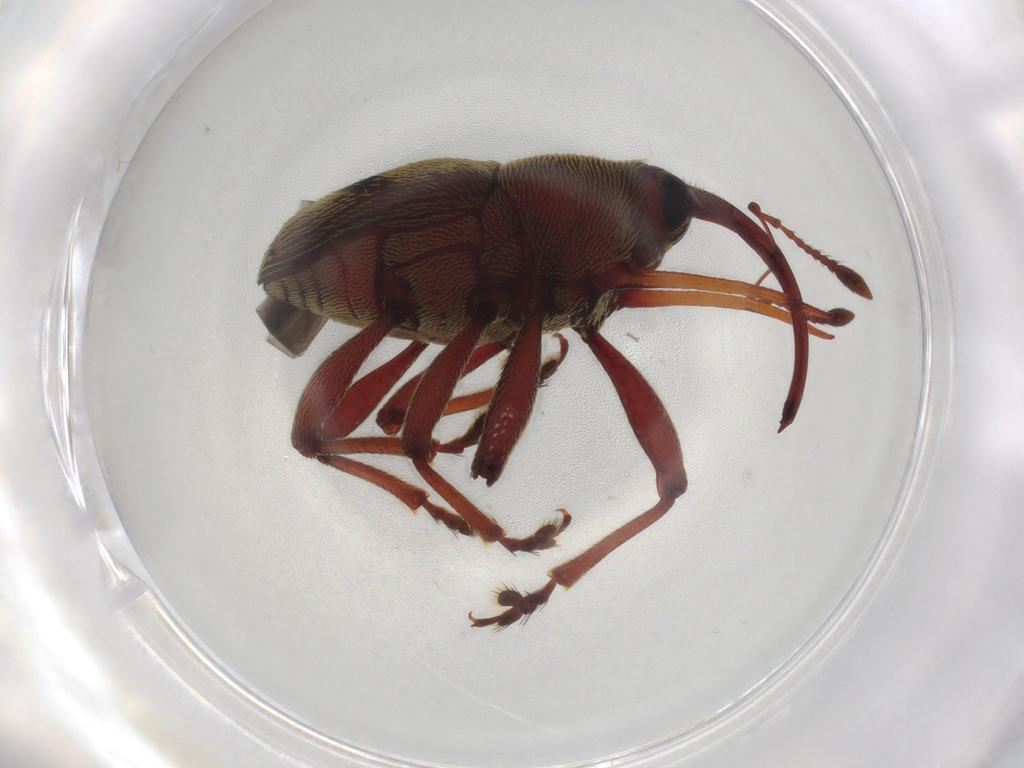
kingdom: Animalia
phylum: Arthropoda
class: Insecta
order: Coleoptera
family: Curculionidae
